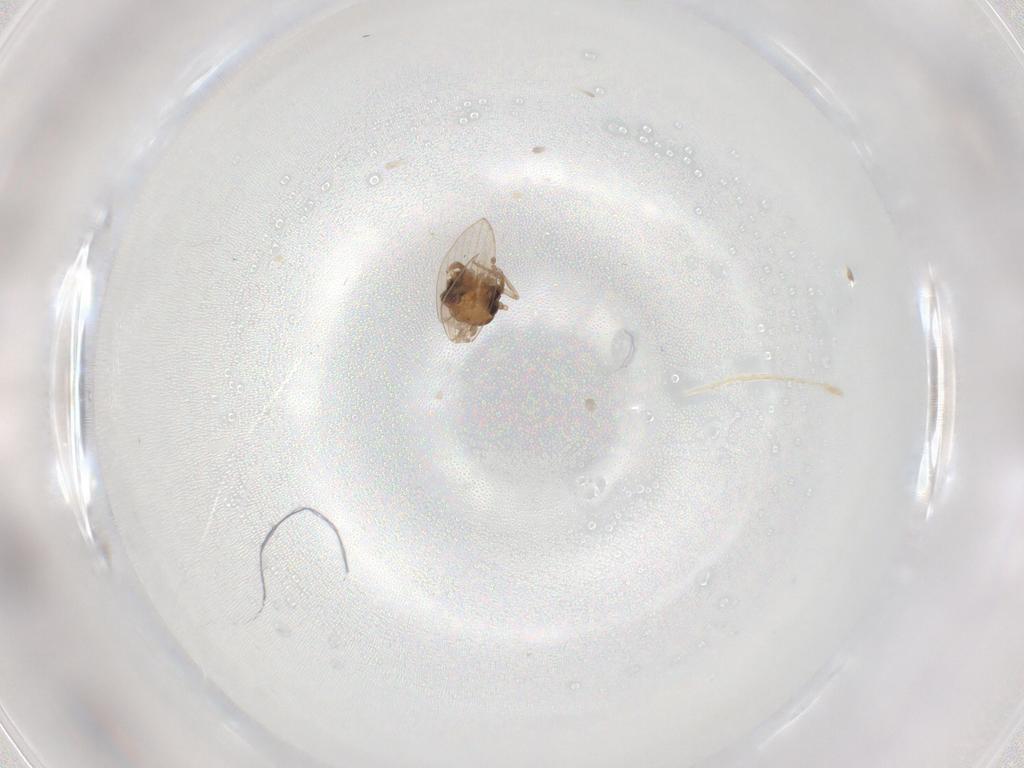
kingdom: Animalia
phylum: Arthropoda
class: Insecta
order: Diptera
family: Psychodidae
